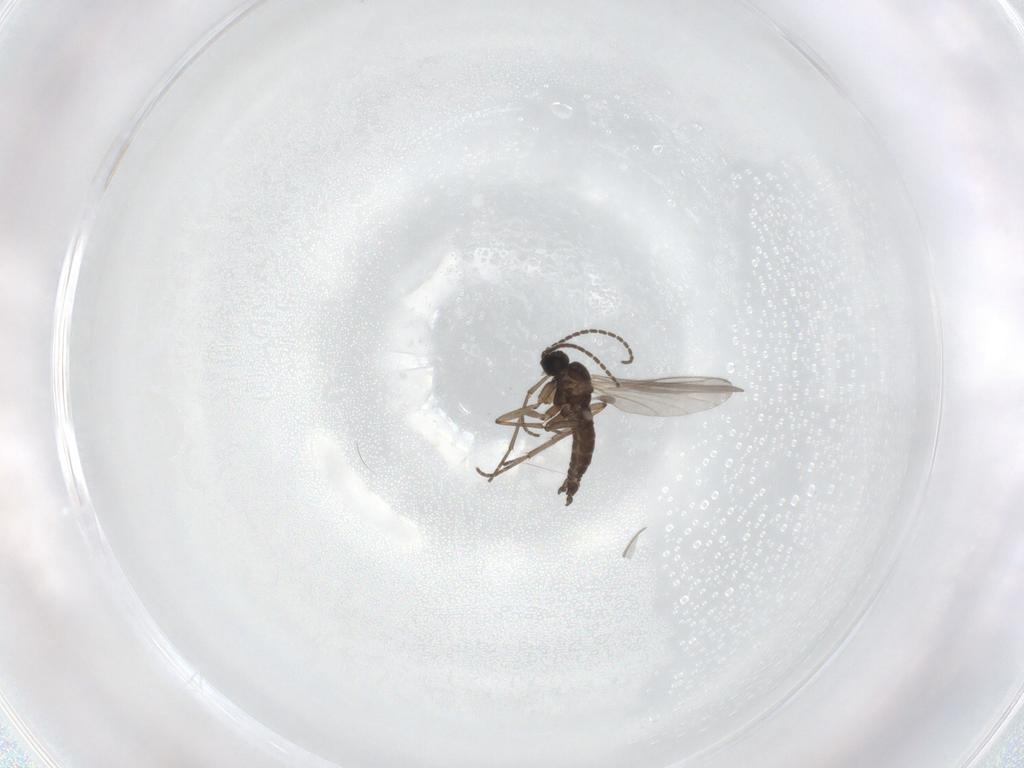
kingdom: Animalia
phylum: Arthropoda
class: Insecta
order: Diptera
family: Sciaridae
